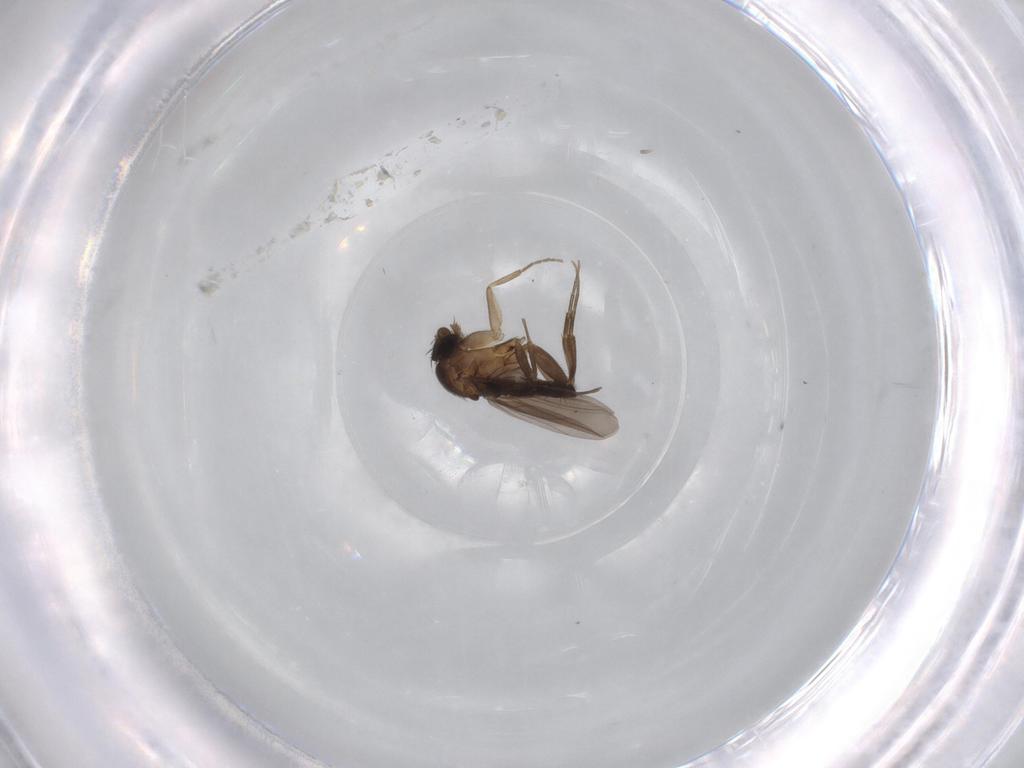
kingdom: Animalia
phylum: Arthropoda
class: Insecta
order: Diptera
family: Phoridae
